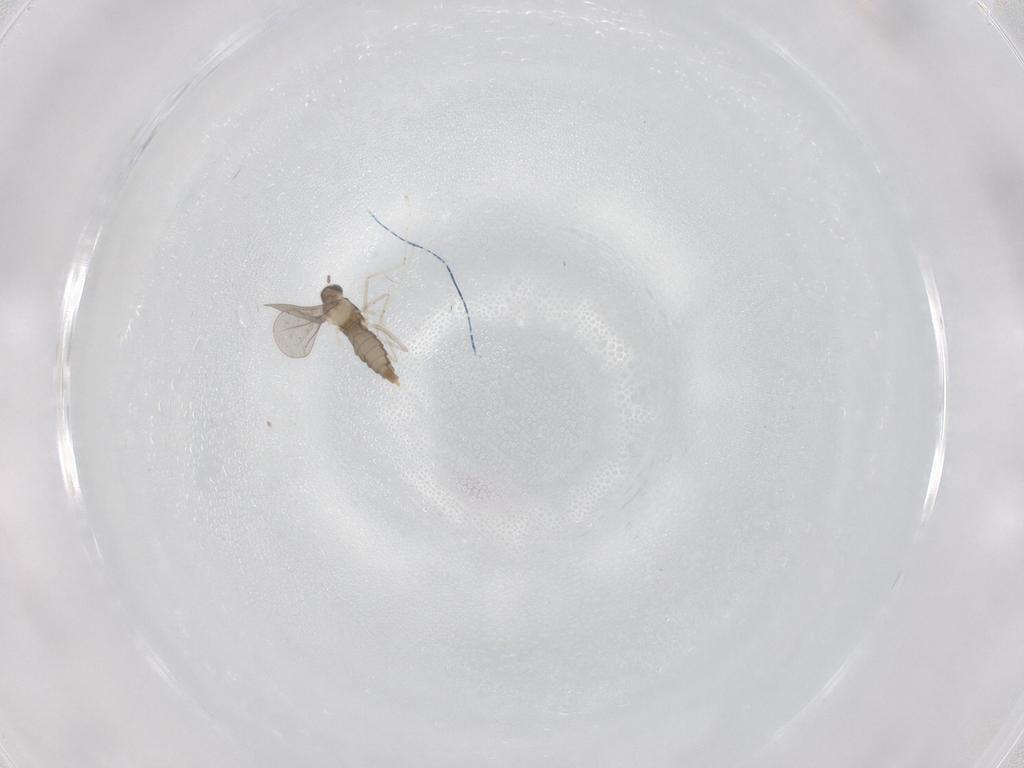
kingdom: Animalia
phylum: Arthropoda
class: Insecta
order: Diptera
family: Cecidomyiidae
